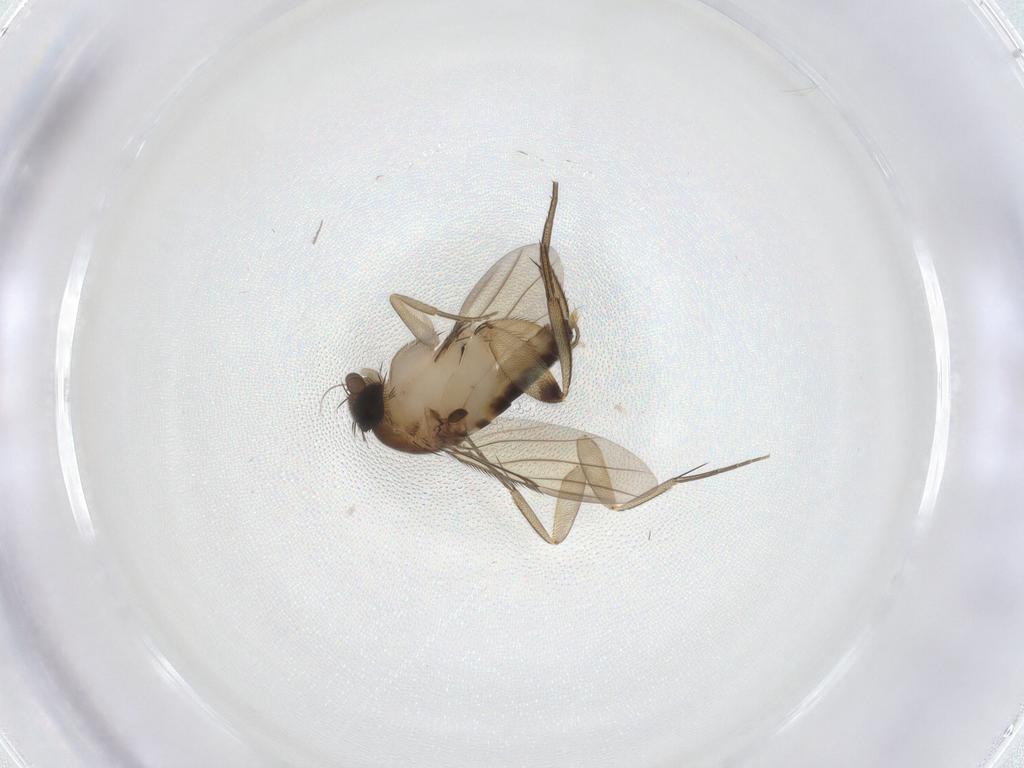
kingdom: Animalia
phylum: Arthropoda
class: Insecta
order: Diptera
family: Phoridae
